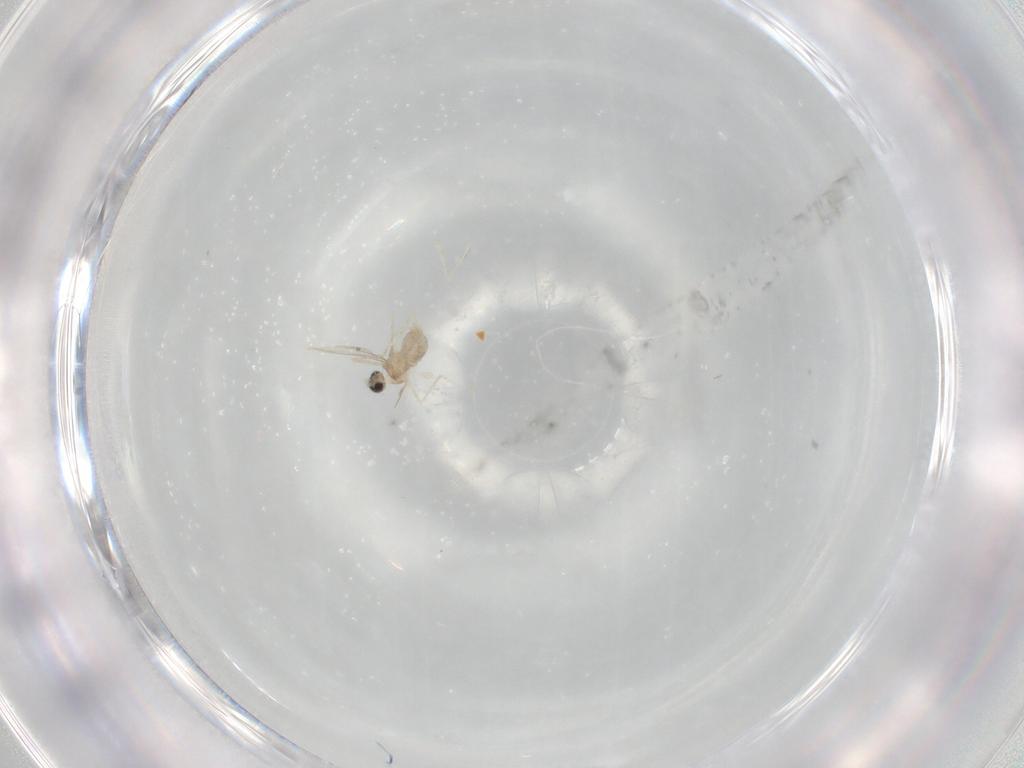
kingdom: Animalia
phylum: Arthropoda
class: Insecta
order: Diptera
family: Cecidomyiidae
